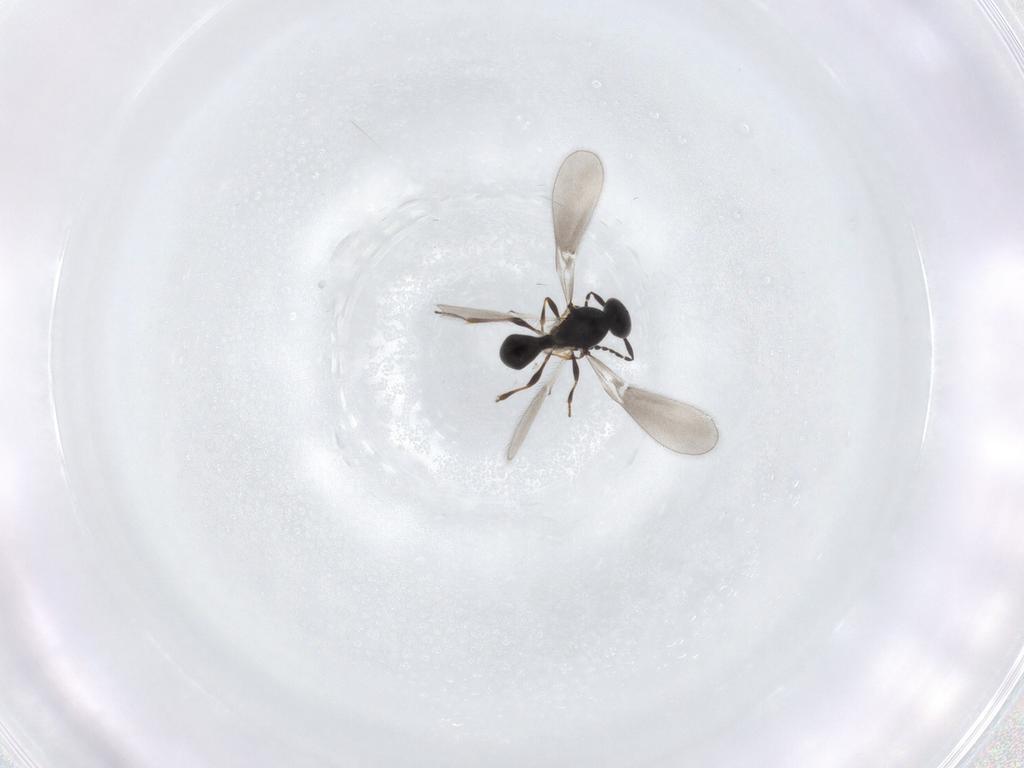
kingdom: Animalia
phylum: Arthropoda
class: Insecta
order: Hymenoptera
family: Platygastridae
